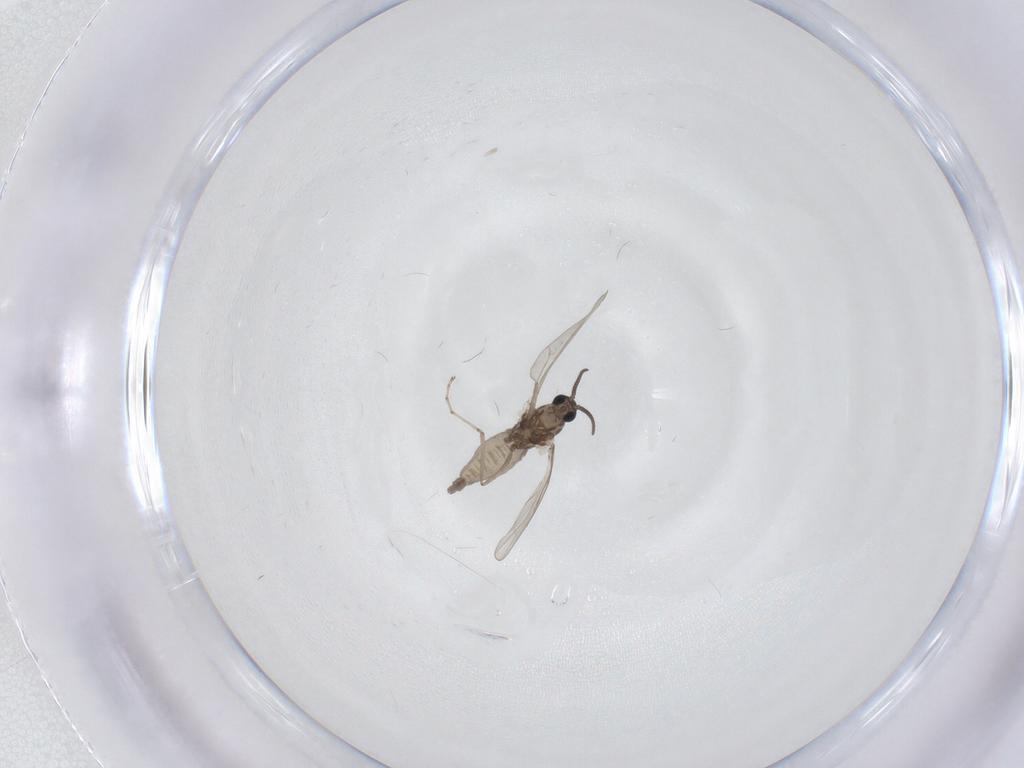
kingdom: Animalia
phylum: Arthropoda
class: Insecta
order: Diptera
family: Cecidomyiidae
